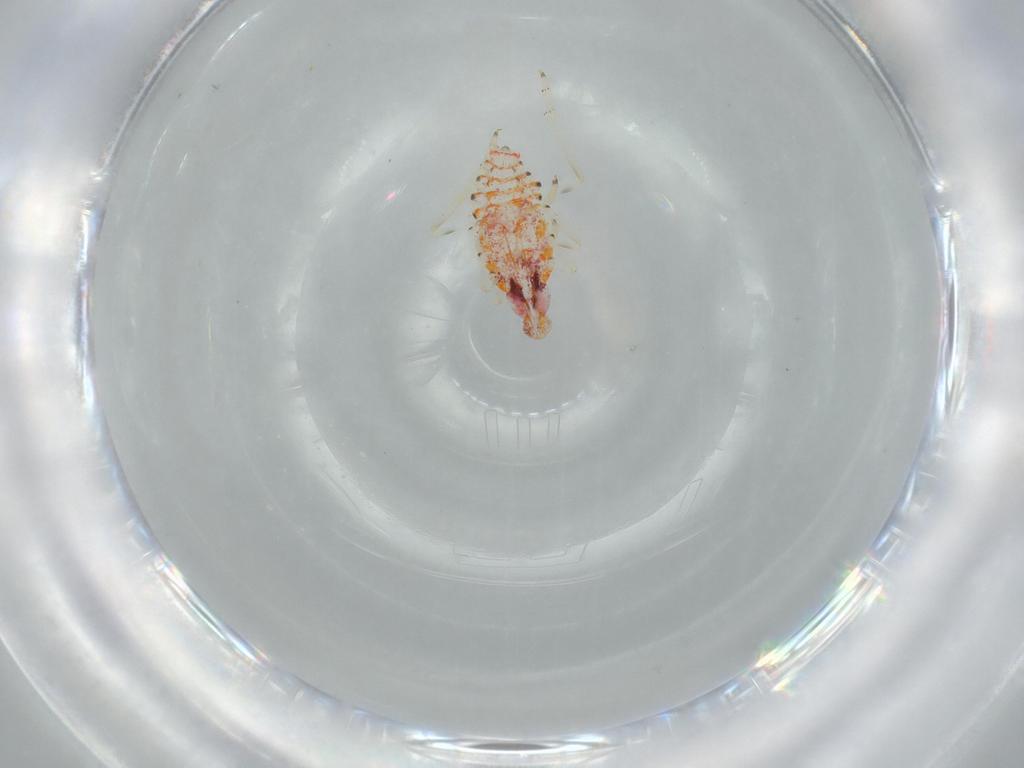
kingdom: Animalia
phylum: Arthropoda
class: Insecta
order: Hemiptera
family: Tropiduchidae
